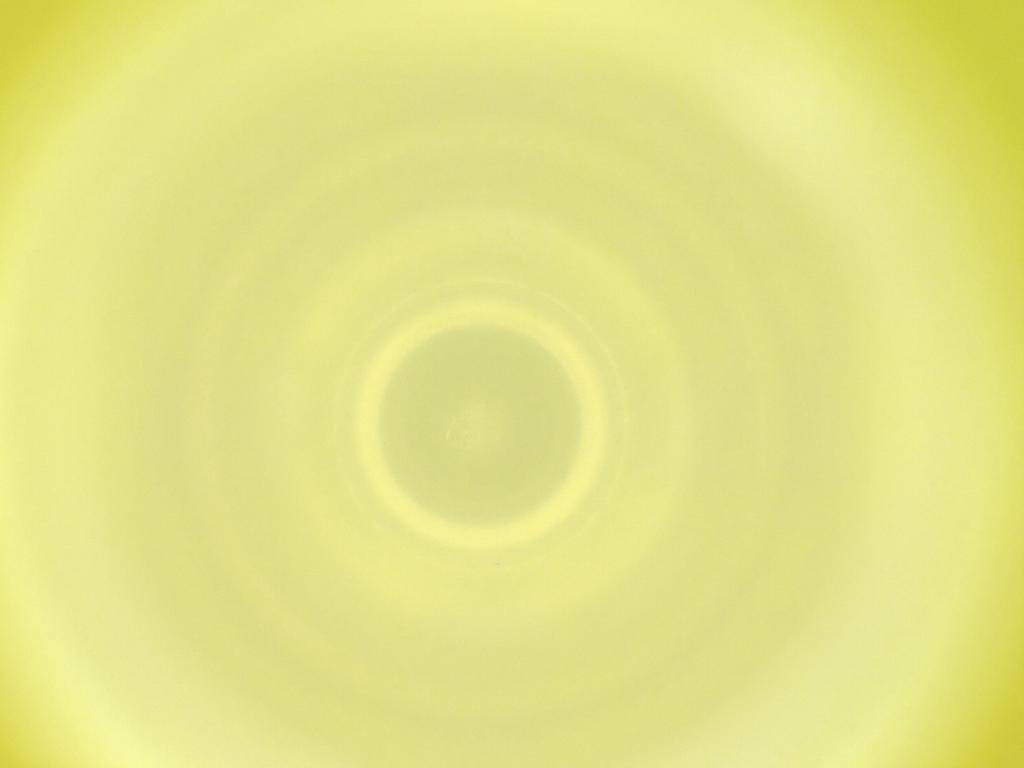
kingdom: Animalia
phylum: Arthropoda
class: Insecta
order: Diptera
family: Cecidomyiidae
